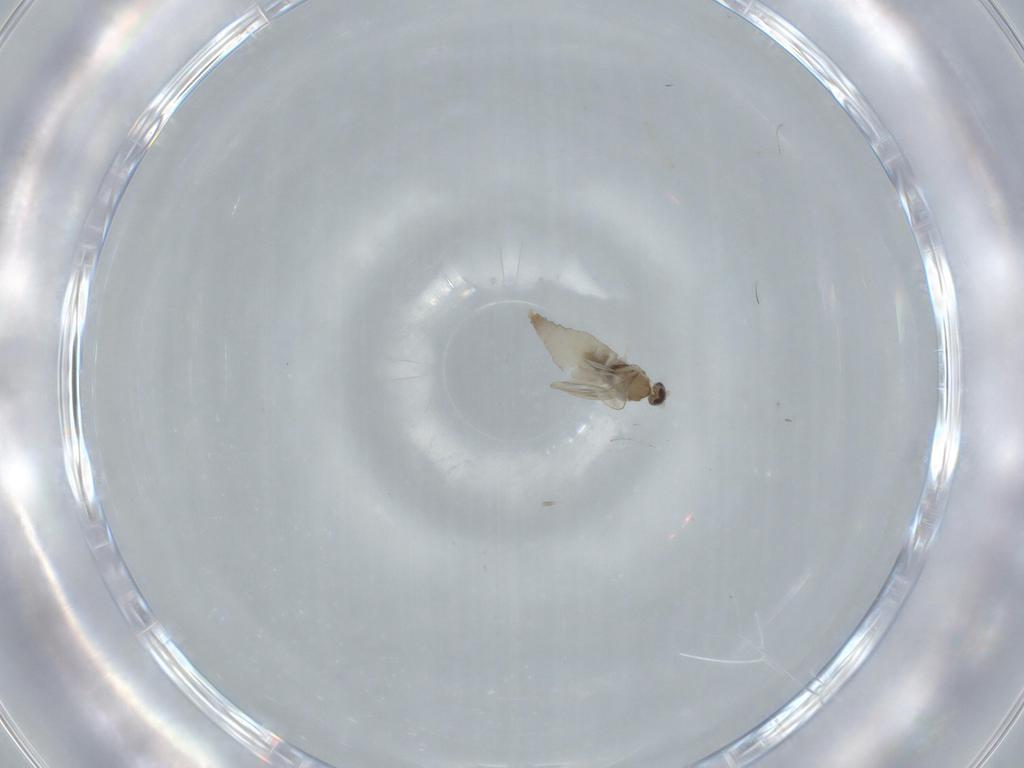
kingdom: Animalia
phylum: Arthropoda
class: Insecta
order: Diptera
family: Cecidomyiidae
